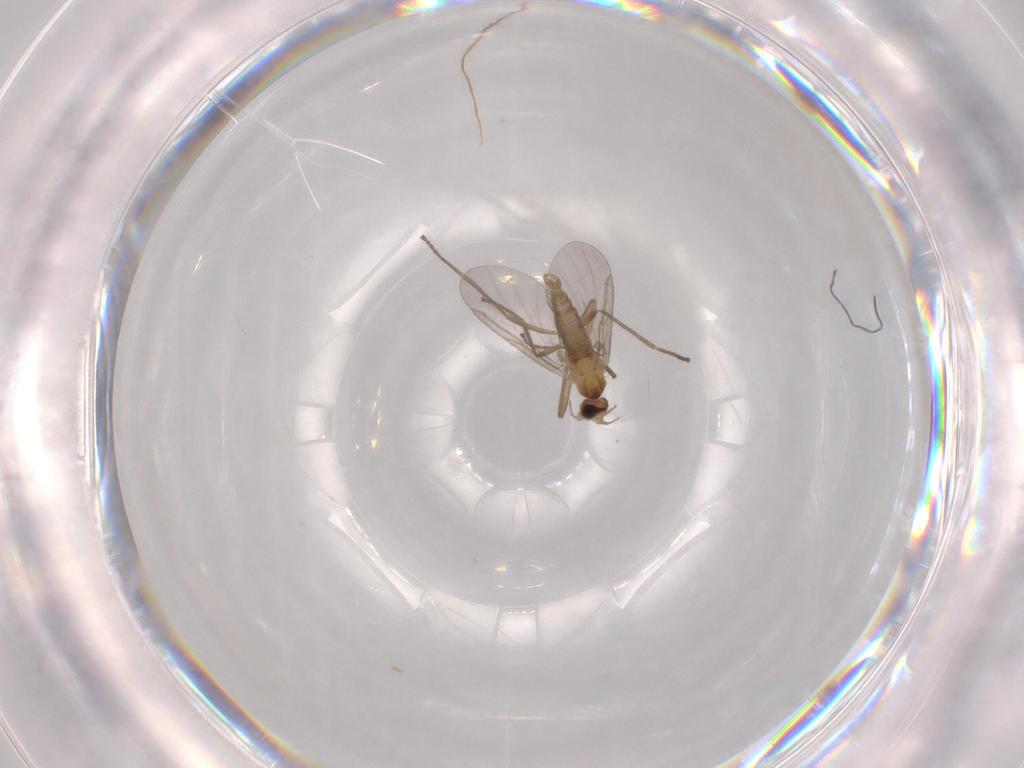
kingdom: Animalia
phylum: Arthropoda
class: Insecta
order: Diptera
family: Cecidomyiidae
